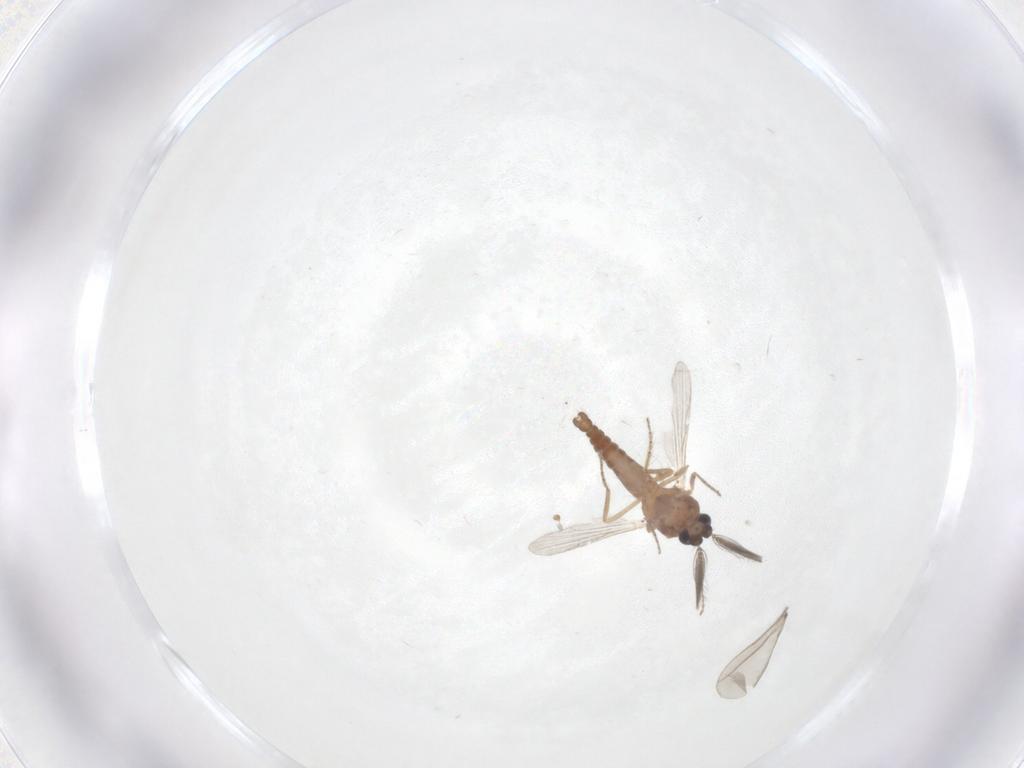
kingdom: Animalia
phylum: Arthropoda
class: Insecta
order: Diptera
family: Ceratopogonidae
